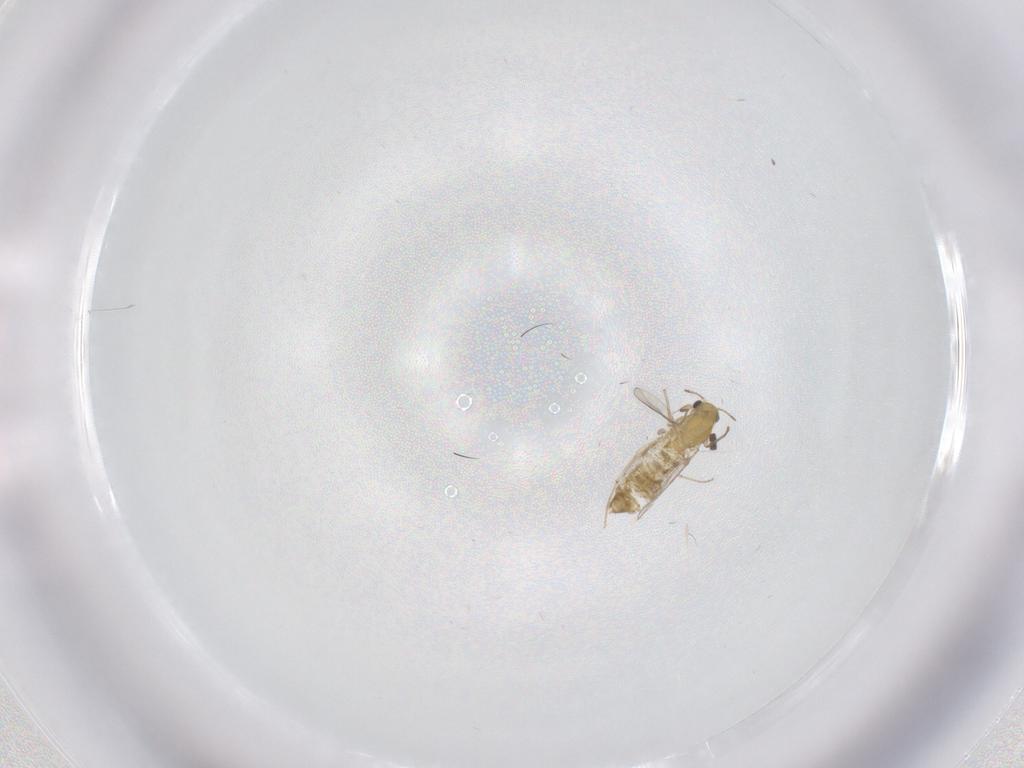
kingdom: Animalia
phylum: Arthropoda
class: Insecta
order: Diptera
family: Chironomidae
